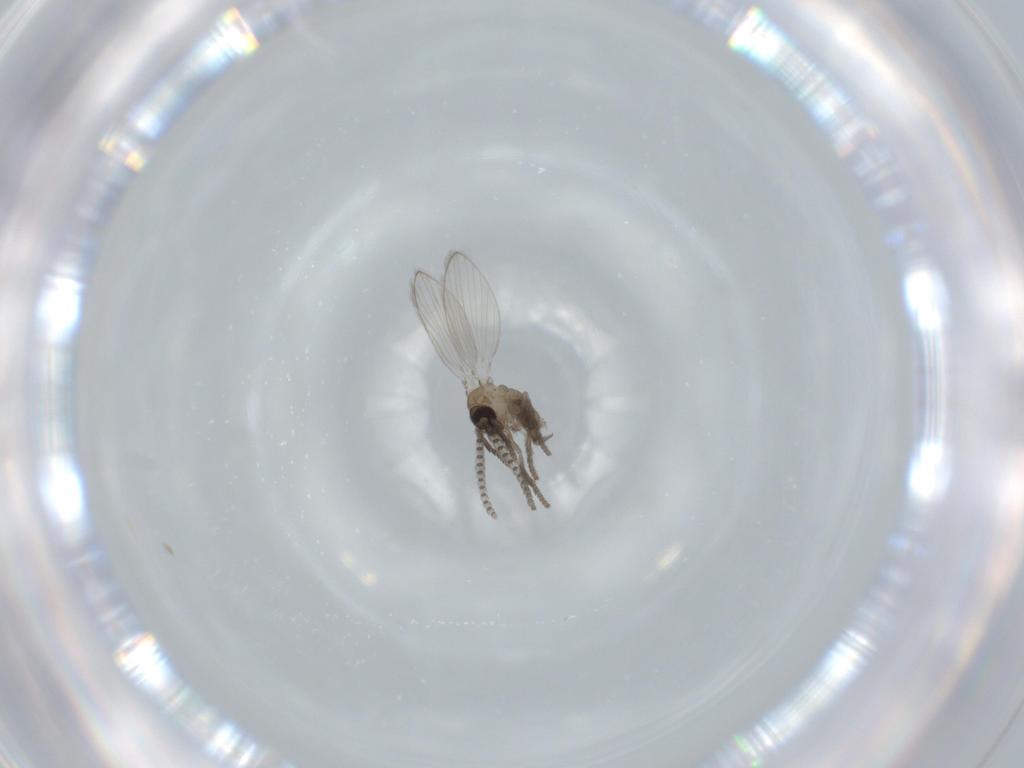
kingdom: Animalia
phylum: Arthropoda
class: Insecta
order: Diptera
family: Psychodidae
